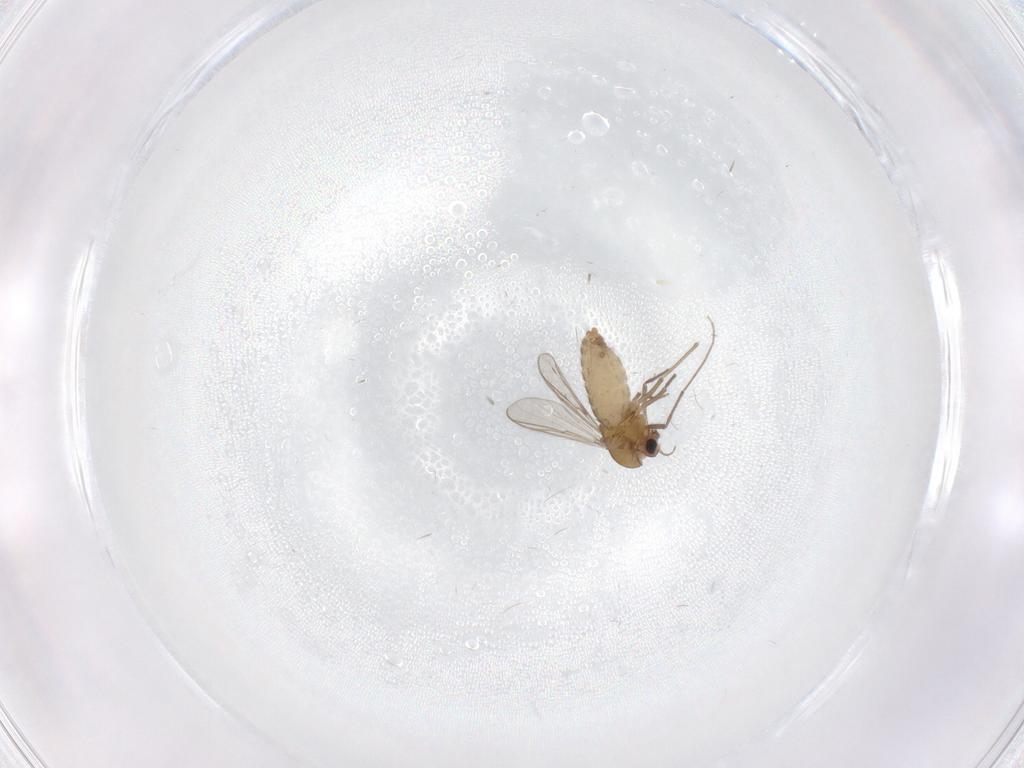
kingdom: Animalia
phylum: Arthropoda
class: Insecta
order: Diptera
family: Chironomidae
